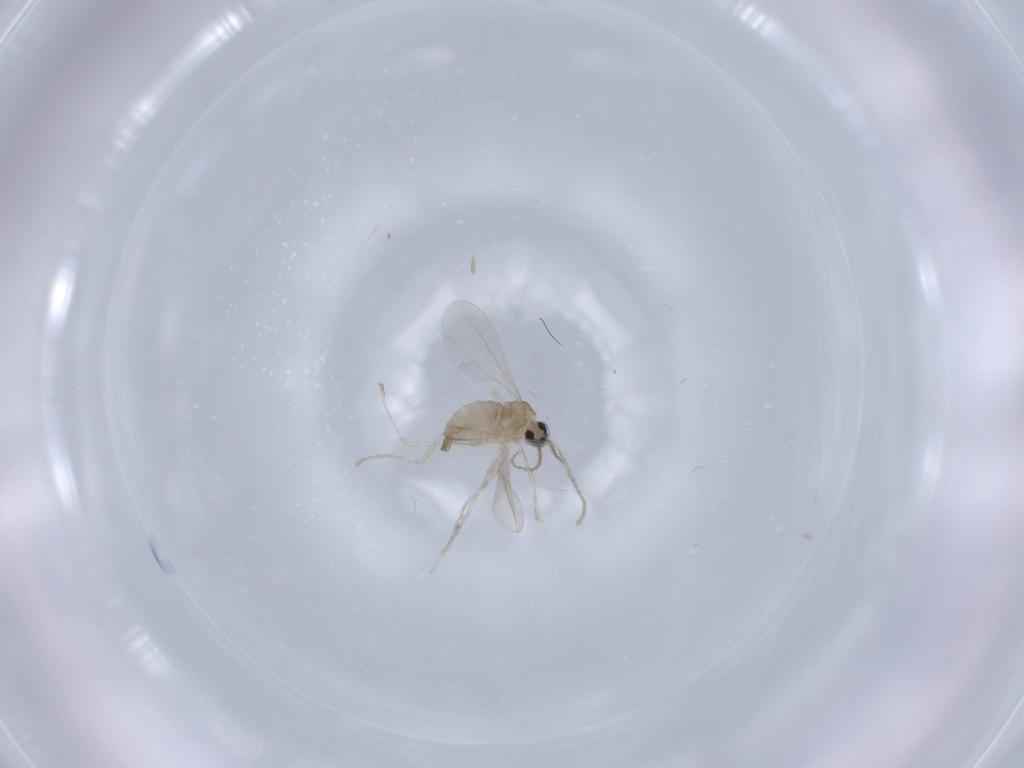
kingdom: Animalia
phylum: Arthropoda
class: Insecta
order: Diptera
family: Cecidomyiidae
